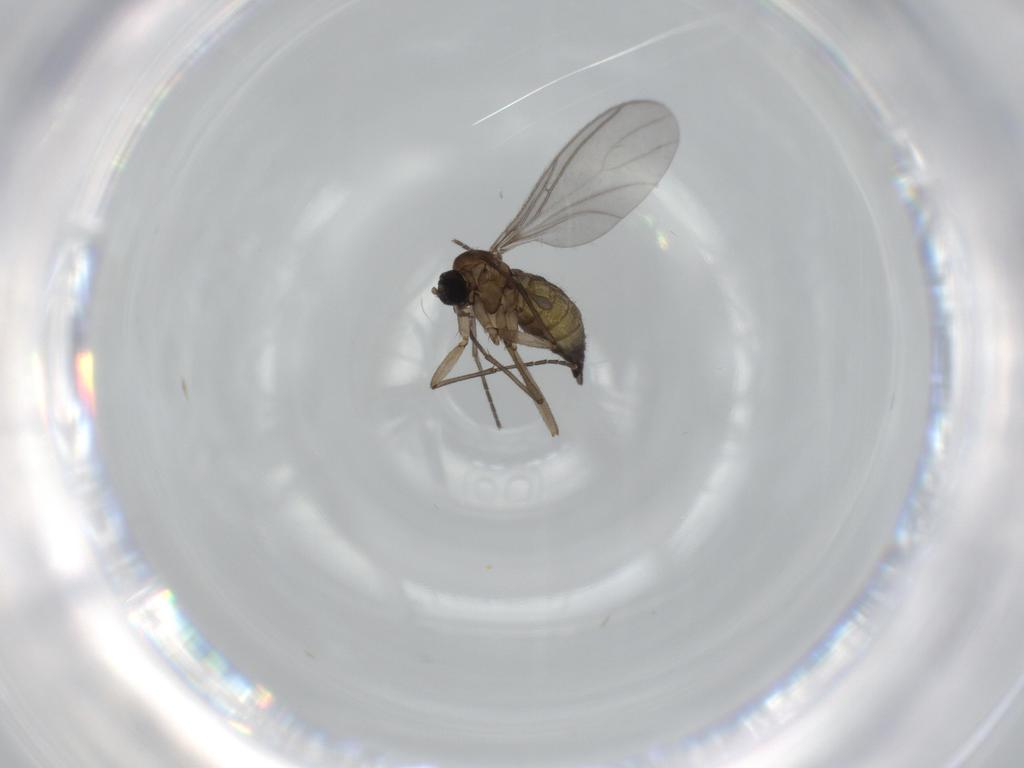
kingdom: Animalia
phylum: Arthropoda
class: Insecta
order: Diptera
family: Sciaridae
